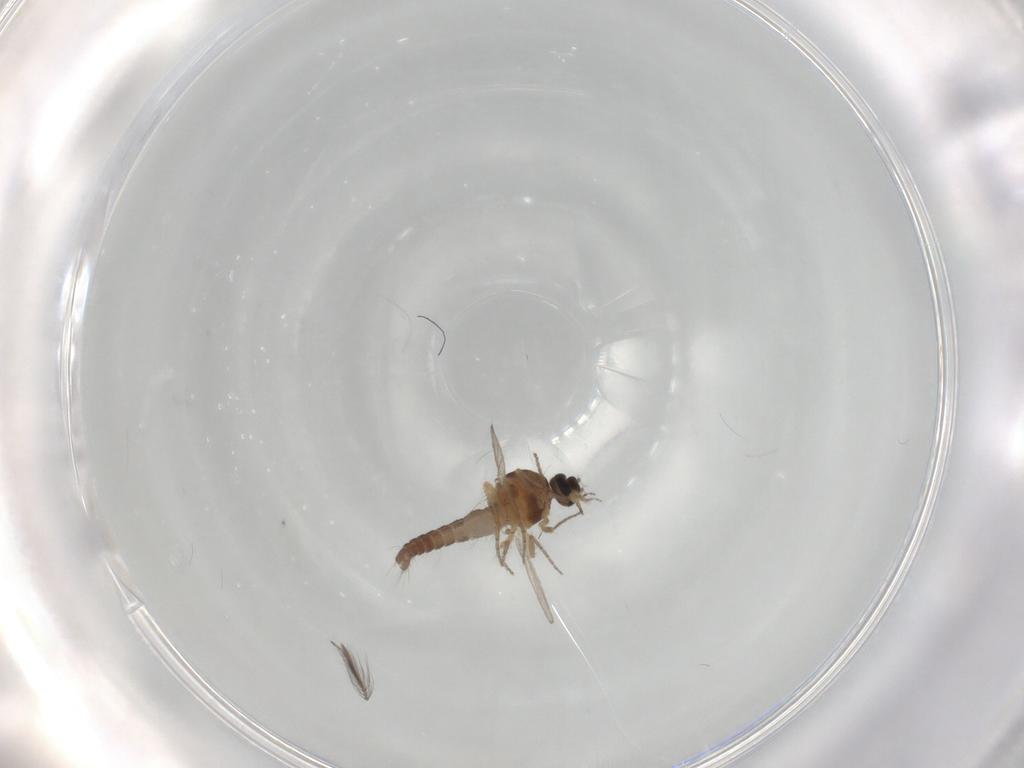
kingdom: Animalia
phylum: Arthropoda
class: Insecta
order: Diptera
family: Ceratopogonidae
